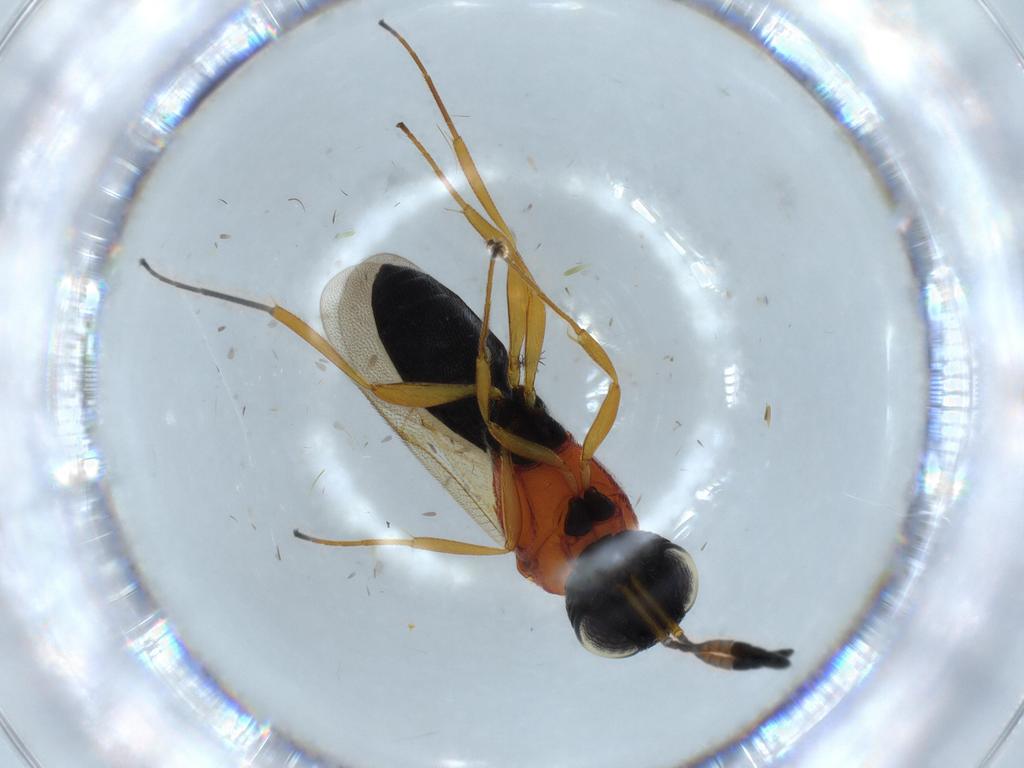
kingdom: Animalia
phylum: Arthropoda
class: Insecta
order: Hymenoptera
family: Scelionidae
